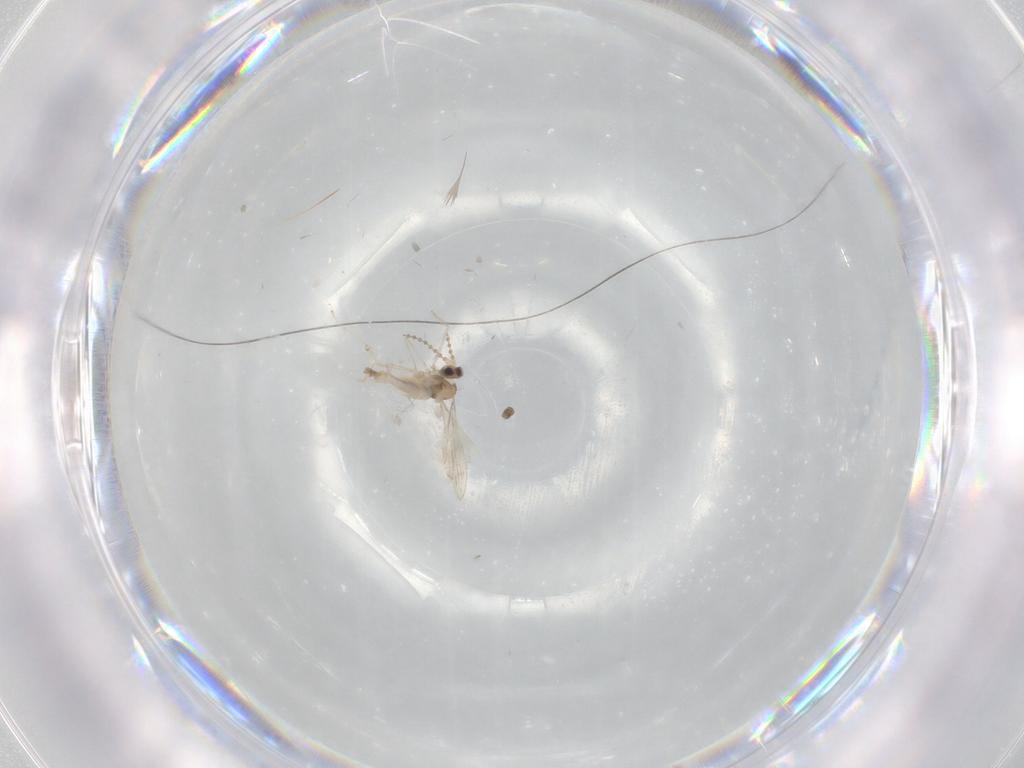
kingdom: Animalia
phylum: Arthropoda
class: Insecta
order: Diptera
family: Cecidomyiidae
